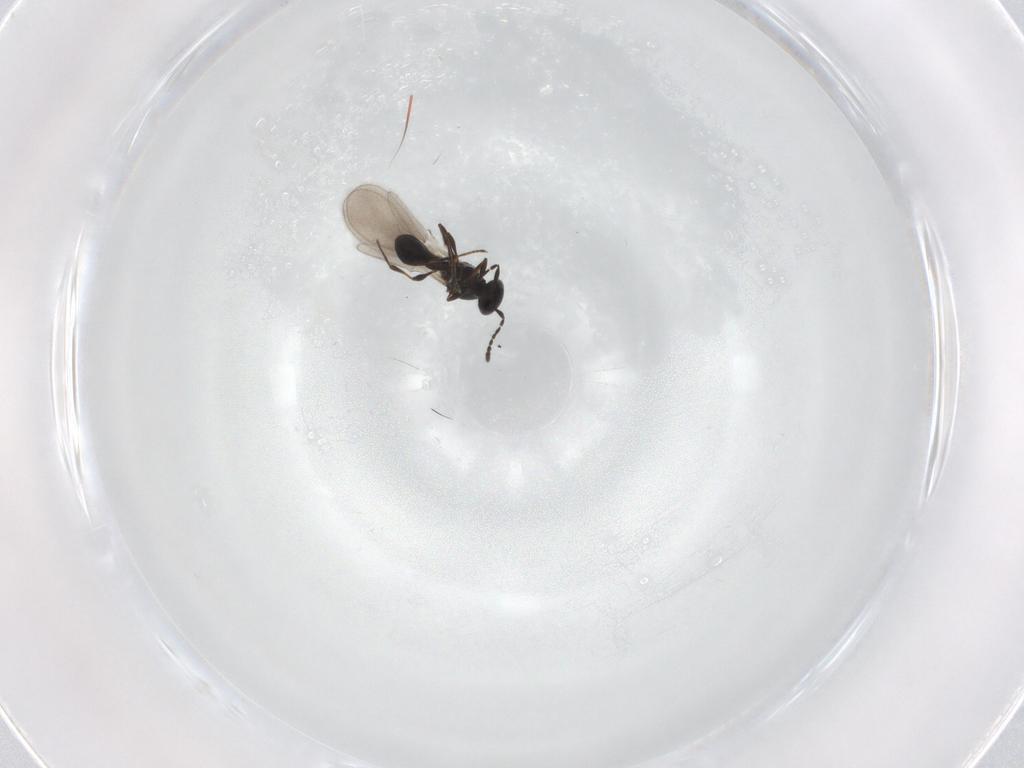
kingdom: Animalia
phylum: Arthropoda
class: Insecta
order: Hymenoptera
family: Platygastridae
